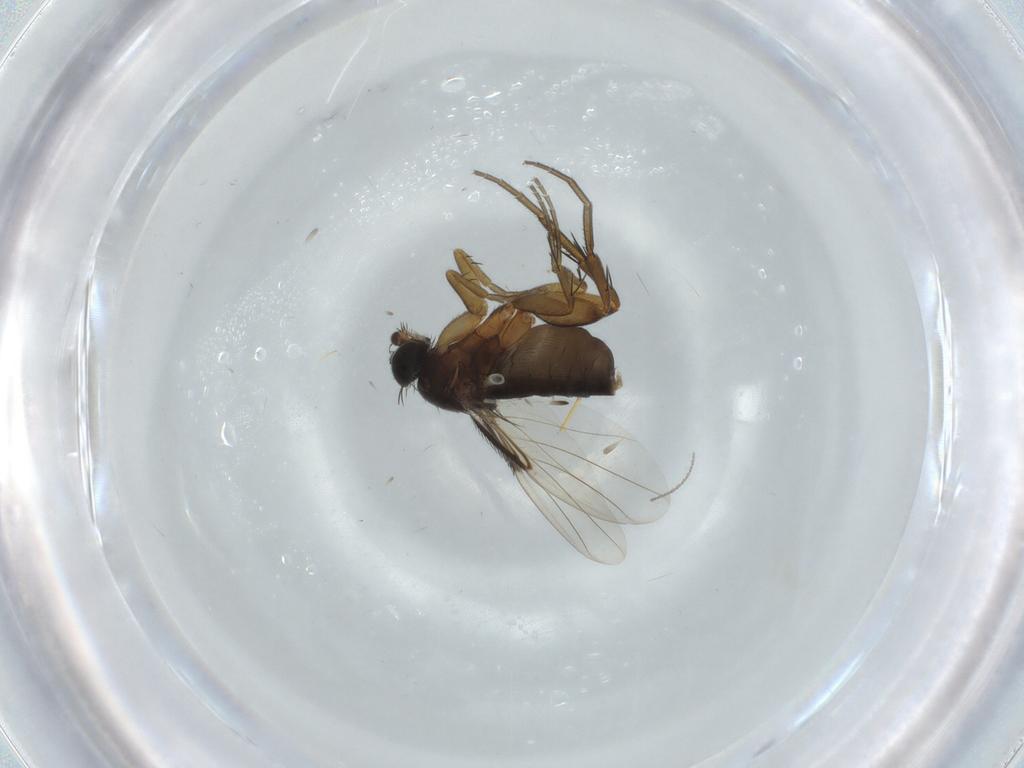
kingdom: Animalia
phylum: Arthropoda
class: Insecta
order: Diptera
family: Phoridae
